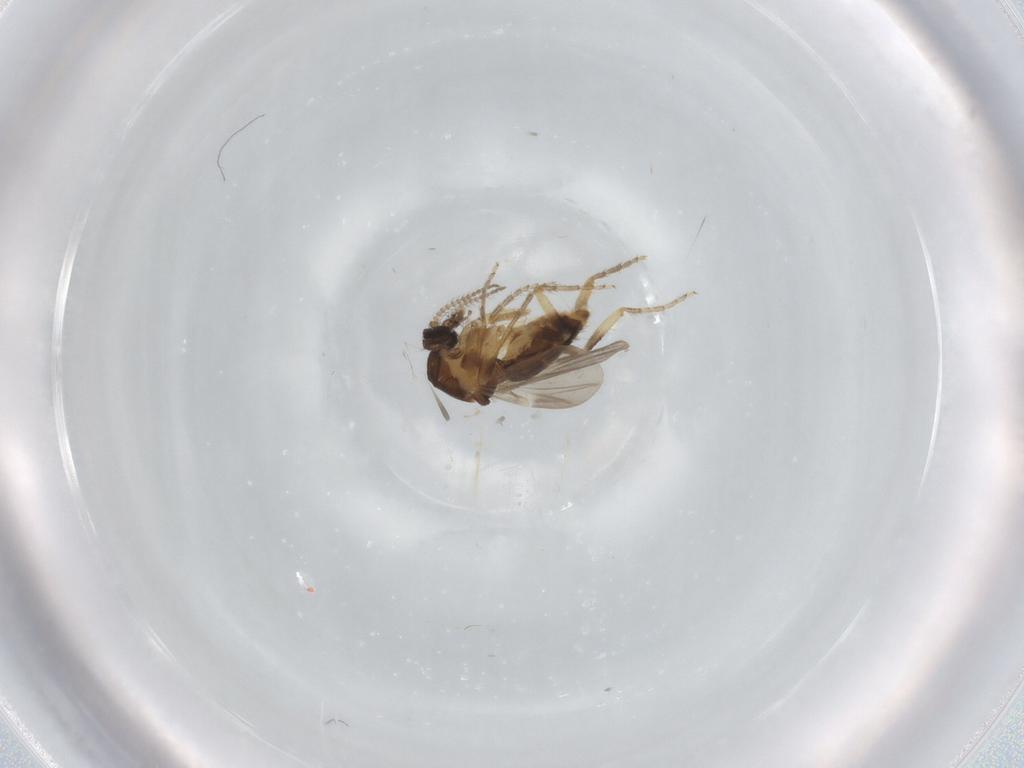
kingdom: Animalia
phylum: Arthropoda
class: Insecta
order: Diptera
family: Ceratopogonidae
